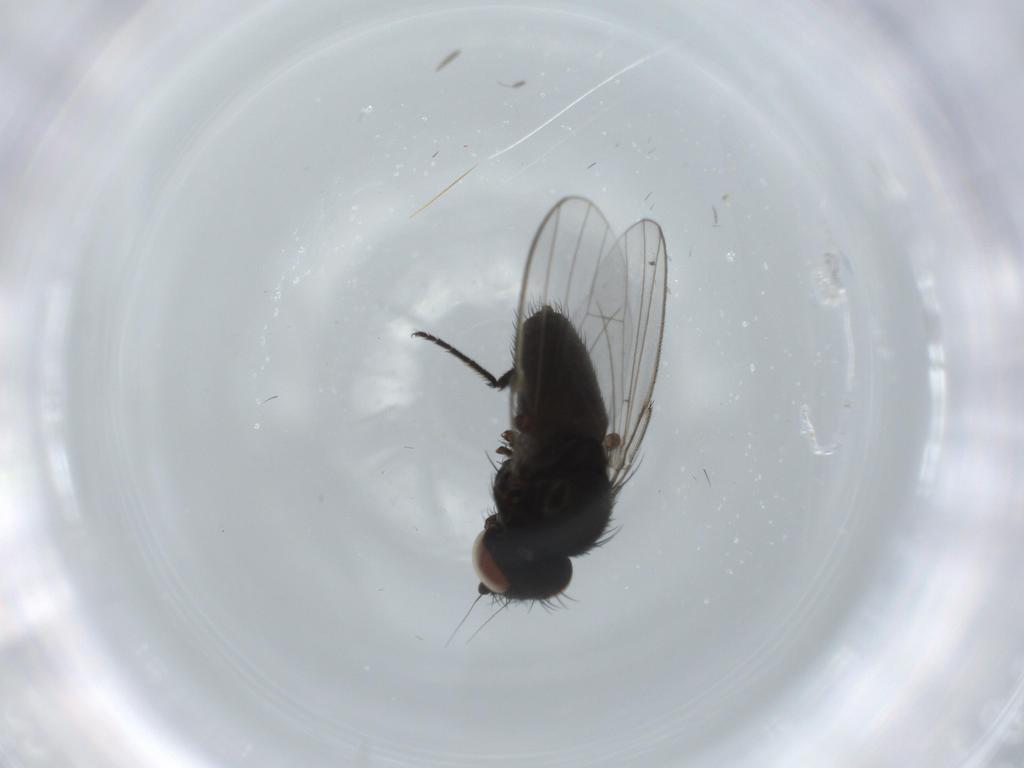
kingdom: Animalia
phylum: Arthropoda
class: Insecta
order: Diptera
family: Milichiidae
